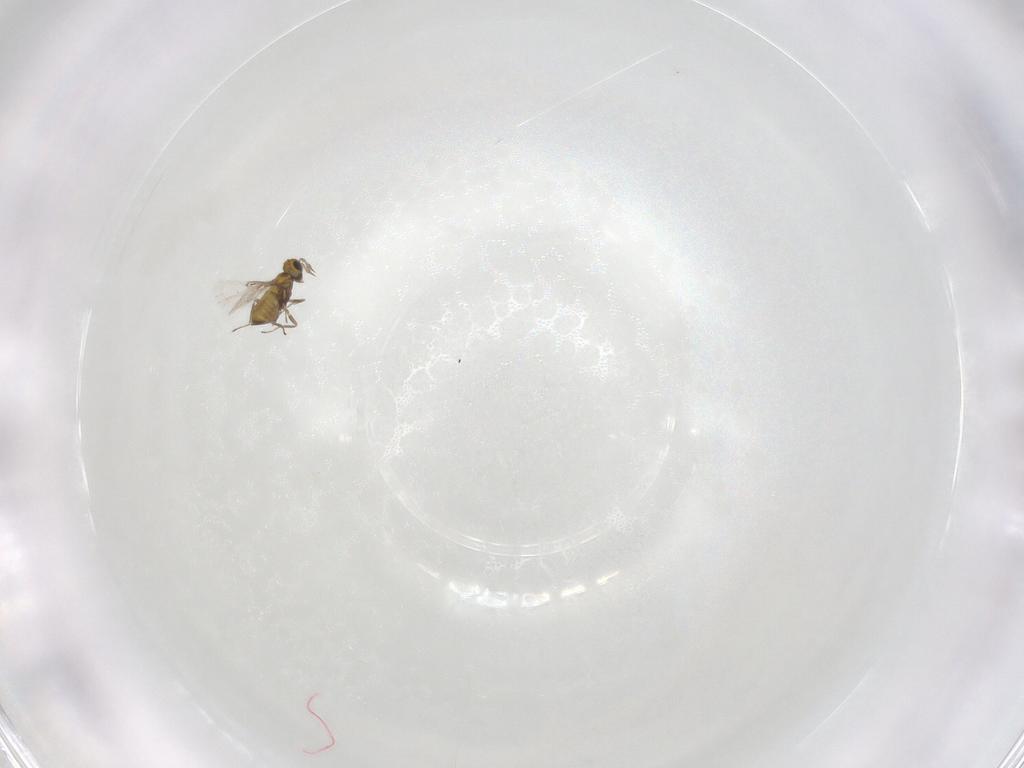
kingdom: Animalia
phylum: Arthropoda
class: Insecta
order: Hymenoptera
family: Trichogrammatidae
